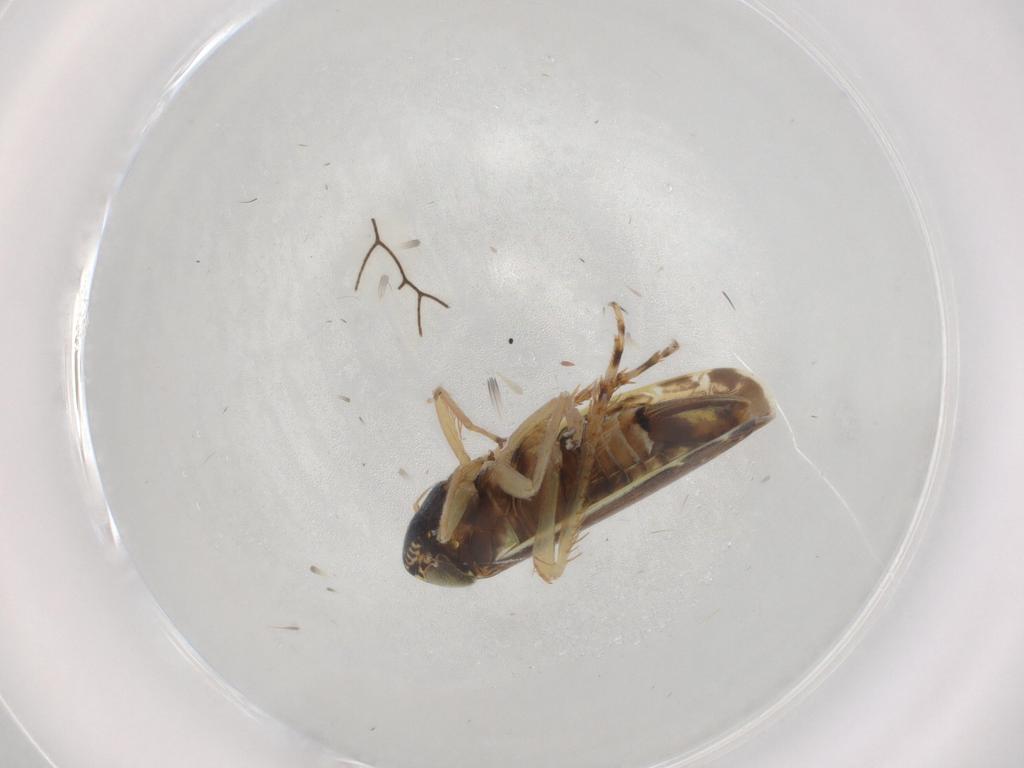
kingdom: Animalia
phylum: Arthropoda
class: Insecta
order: Hemiptera
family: Cicadellidae
